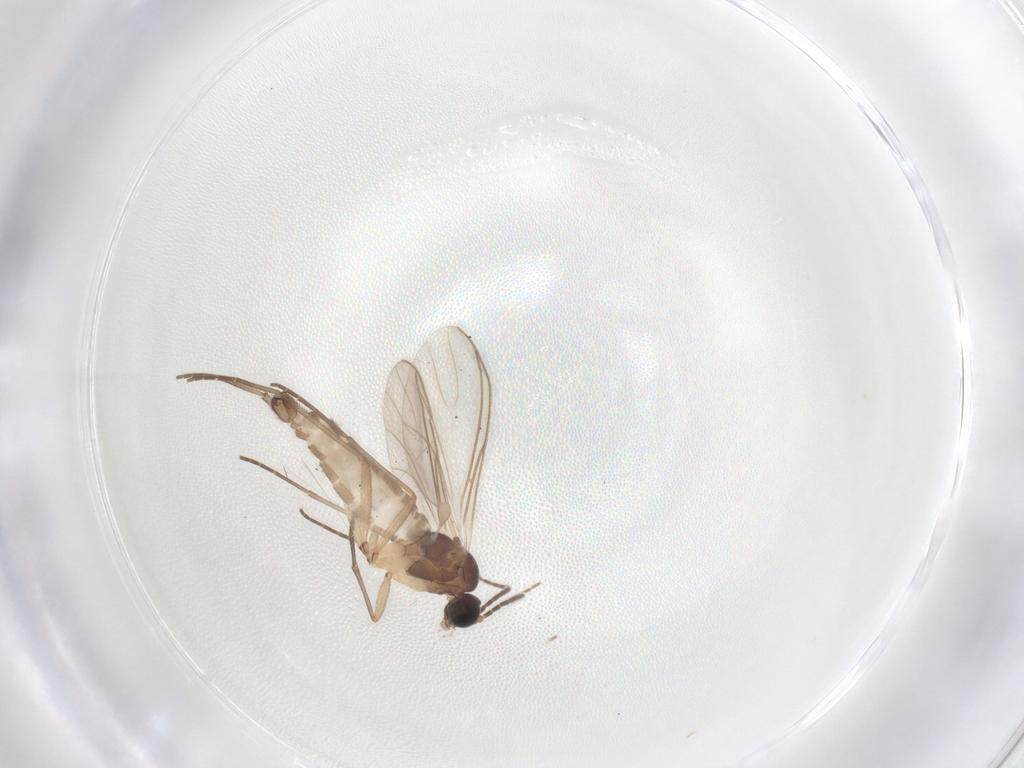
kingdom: Animalia
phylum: Arthropoda
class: Insecta
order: Diptera
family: Sciaridae
